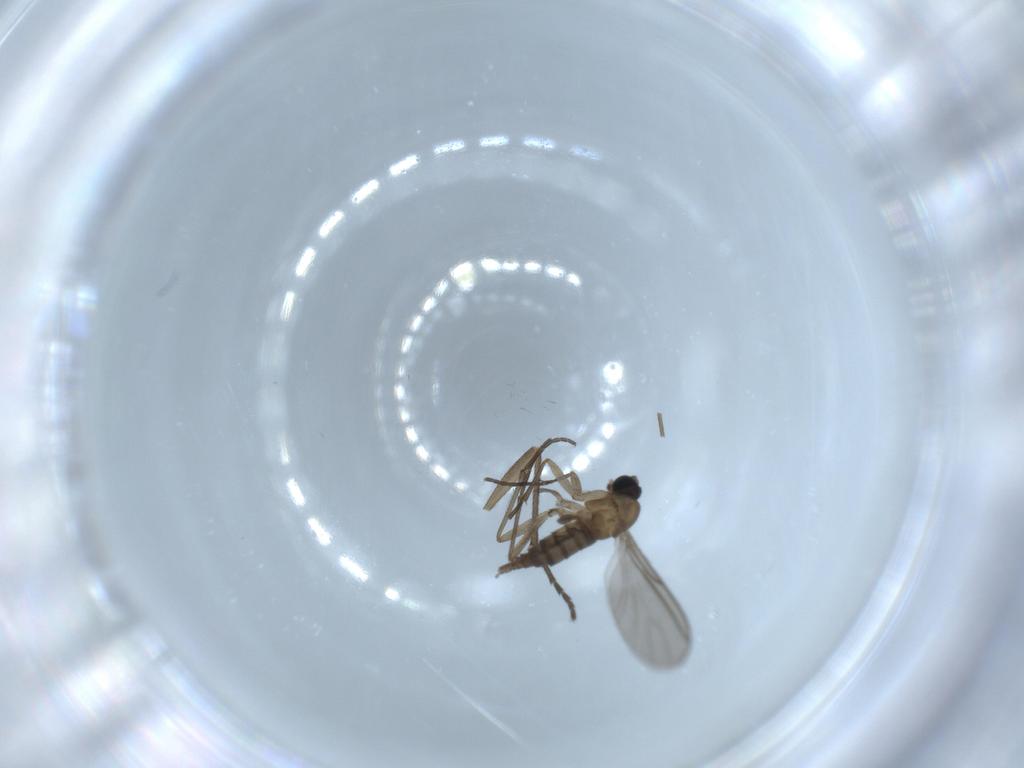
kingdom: Animalia
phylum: Arthropoda
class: Insecta
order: Diptera
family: Sciaridae
